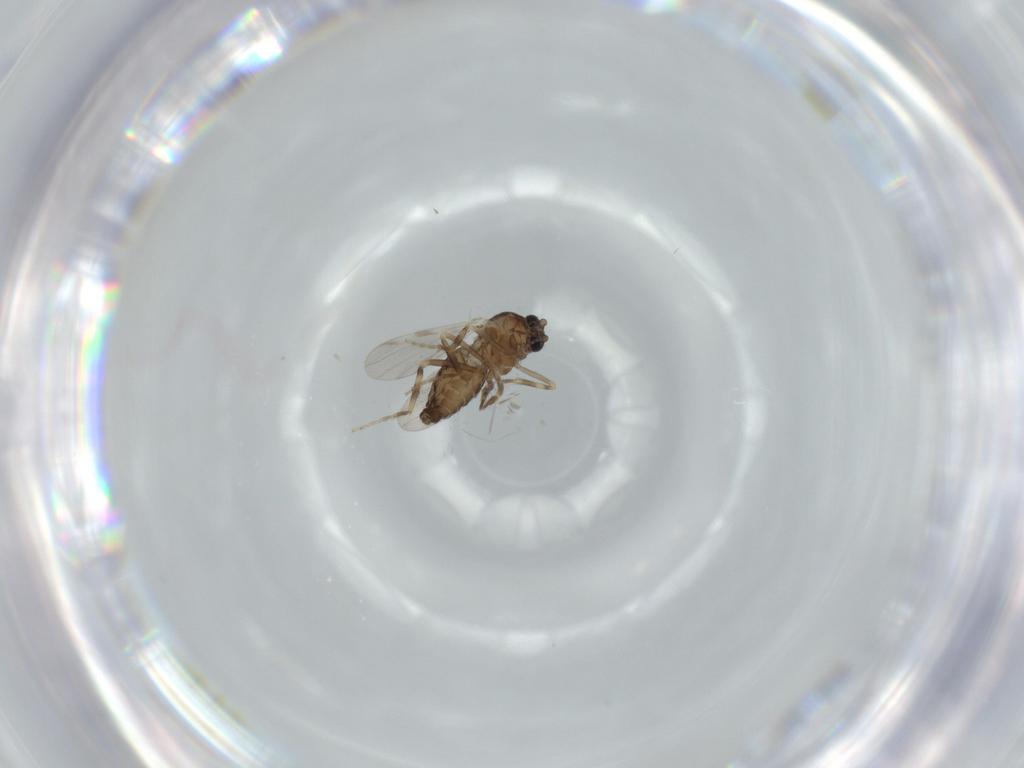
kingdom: Animalia
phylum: Arthropoda
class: Insecta
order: Diptera
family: Ceratopogonidae
